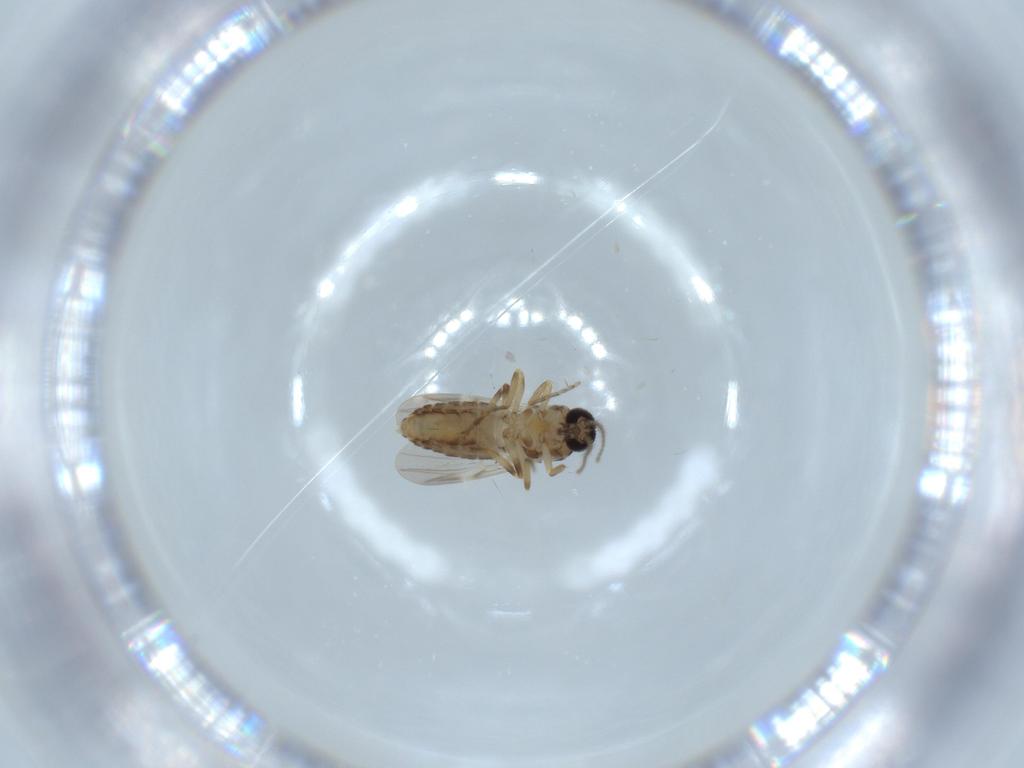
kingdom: Animalia
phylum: Arthropoda
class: Insecta
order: Diptera
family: Ceratopogonidae
